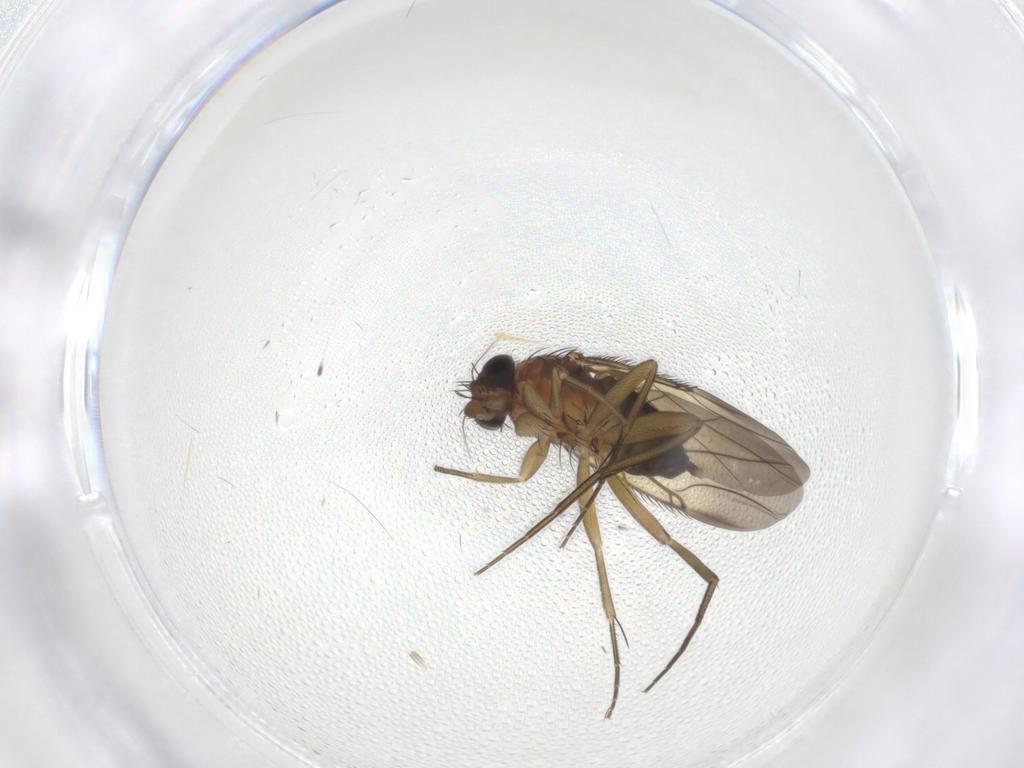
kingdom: Animalia
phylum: Arthropoda
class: Insecta
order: Diptera
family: Phoridae
